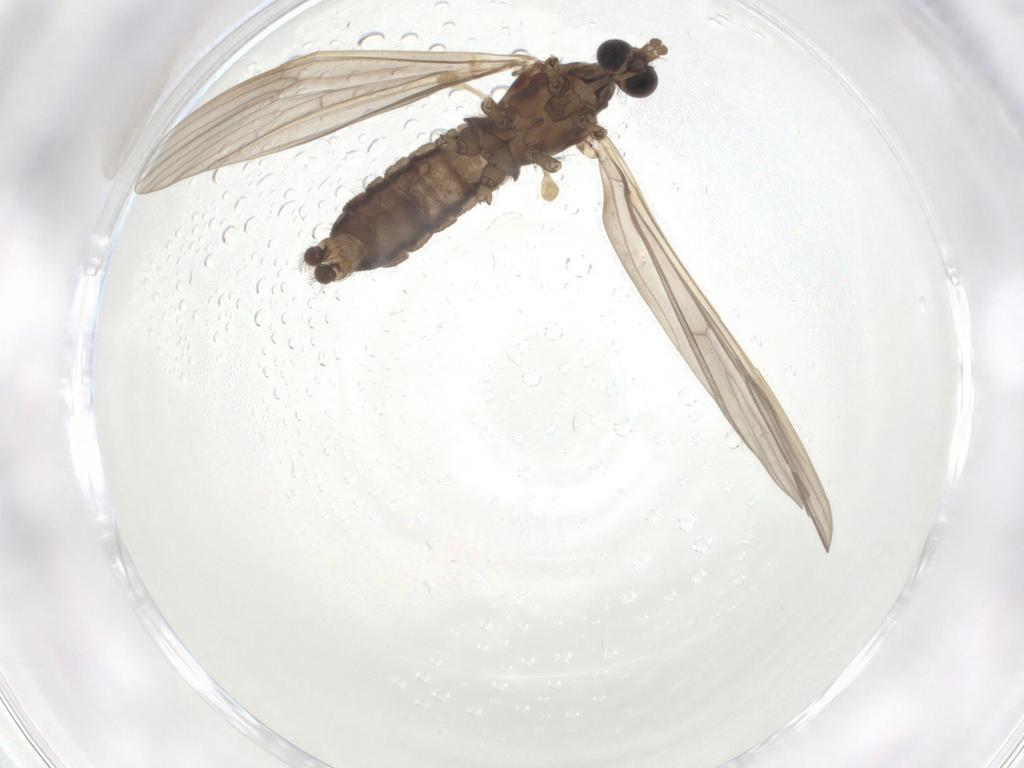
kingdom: Animalia
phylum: Arthropoda
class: Insecta
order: Diptera
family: Limoniidae
